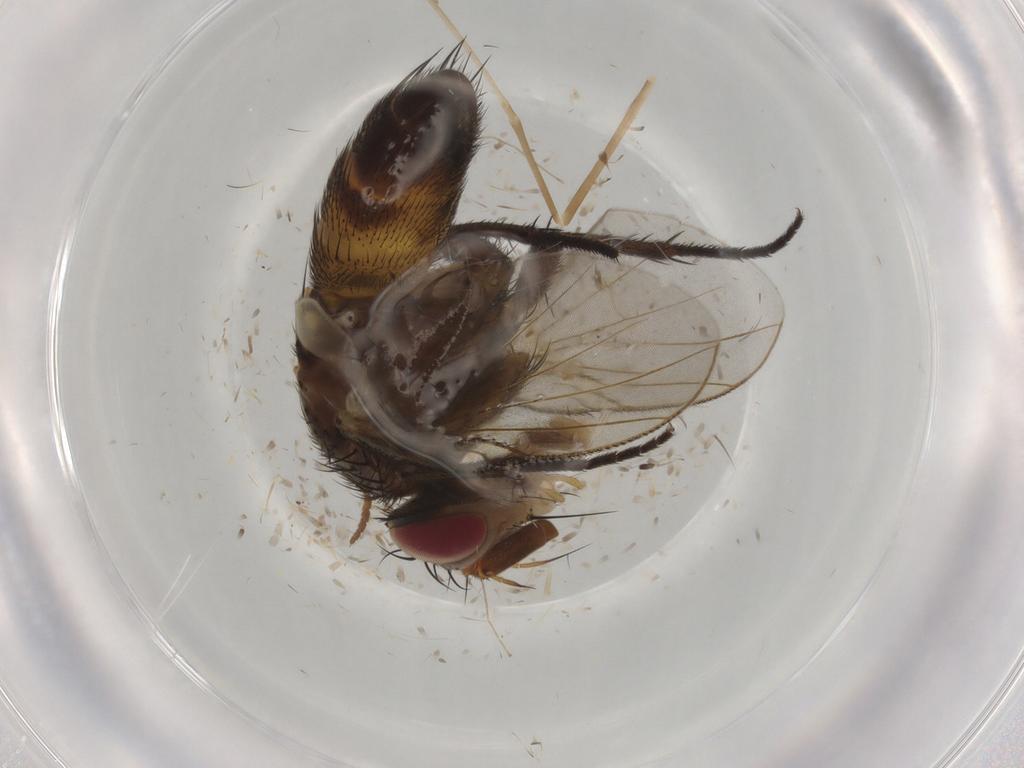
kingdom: Animalia
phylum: Arthropoda
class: Insecta
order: Diptera
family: Tachinidae
